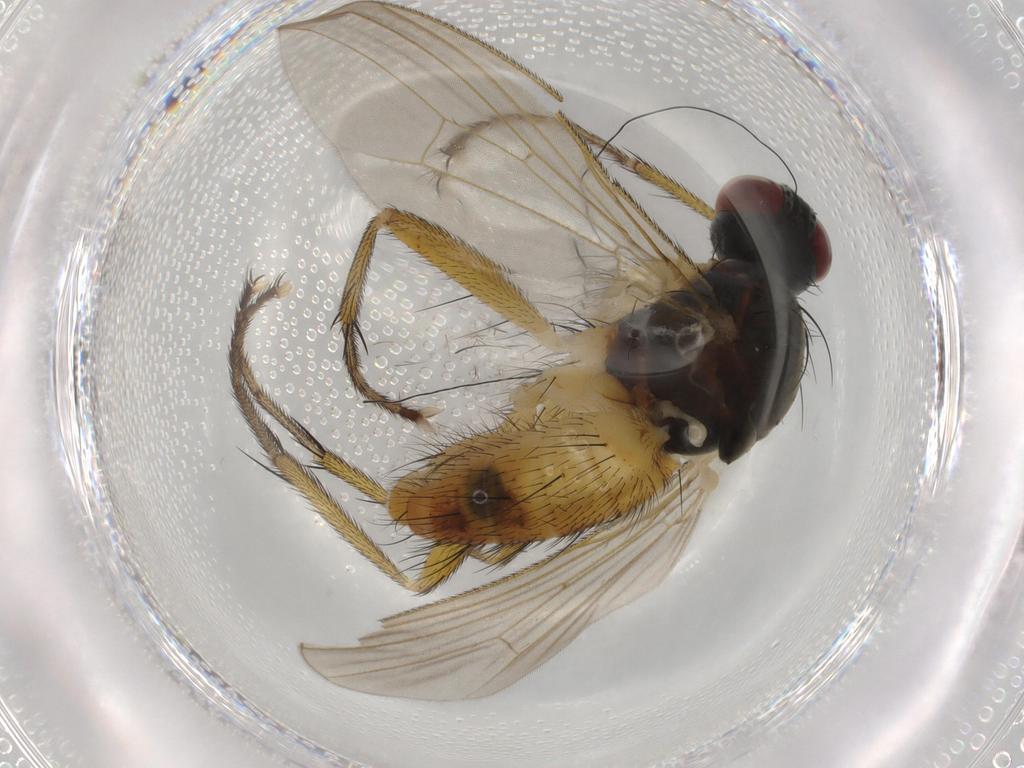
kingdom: Animalia
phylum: Arthropoda
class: Insecta
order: Diptera
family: Muscidae
